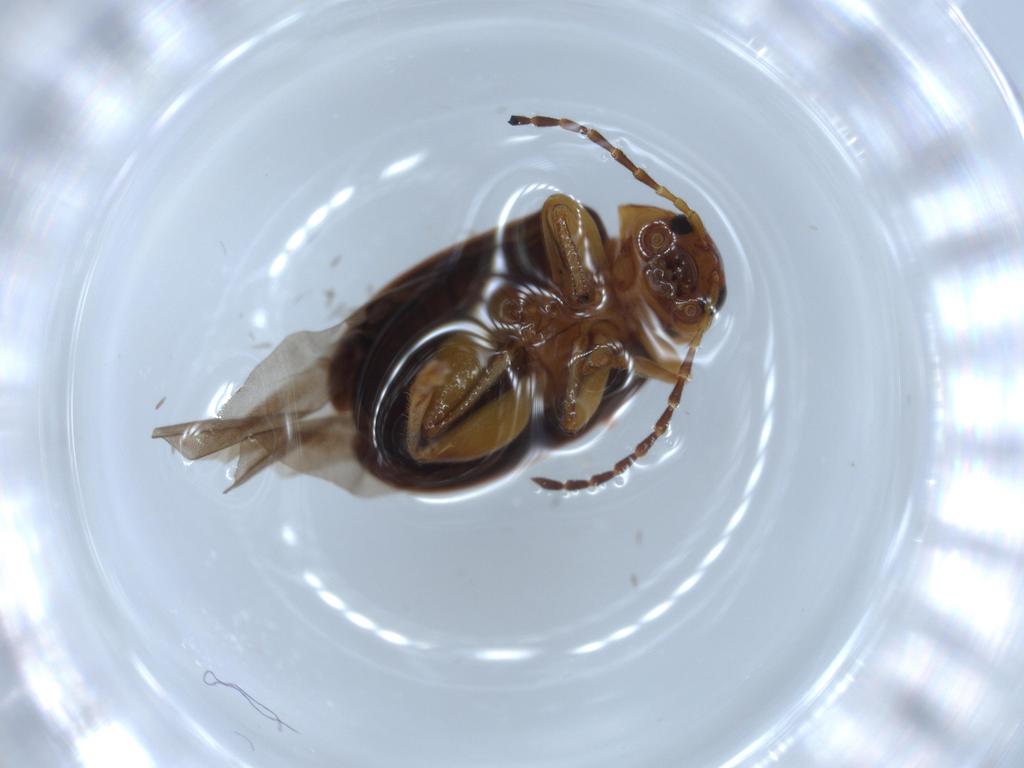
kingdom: Animalia
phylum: Arthropoda
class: Insecta
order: Coleoptera
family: Chrysomelidae
